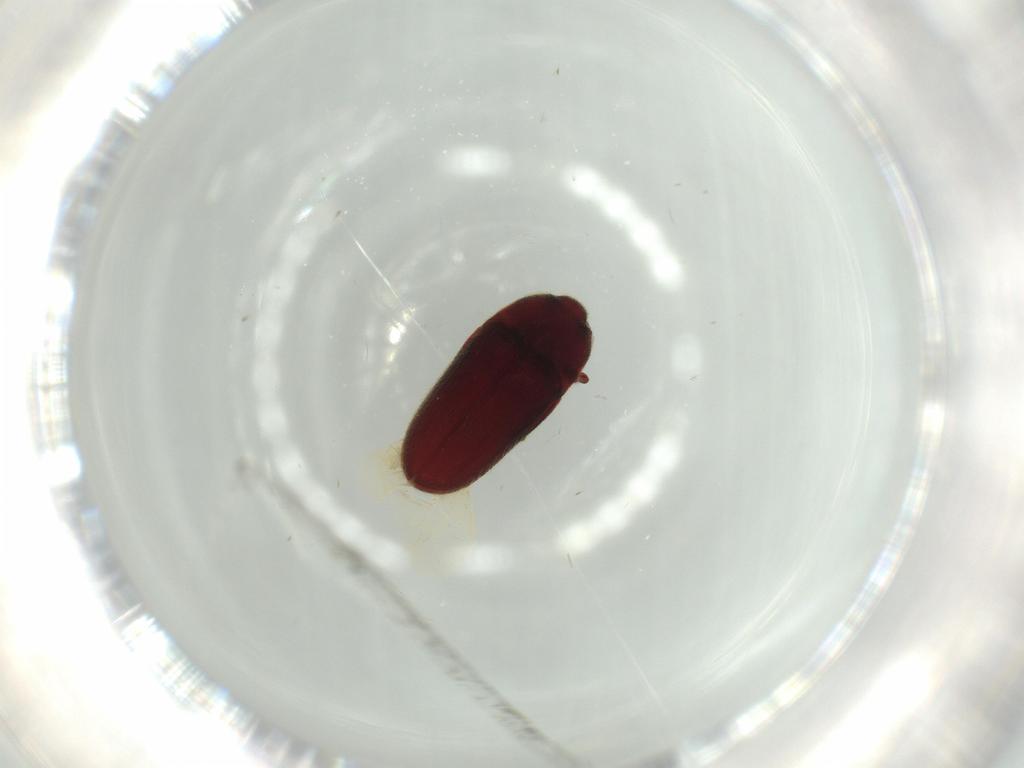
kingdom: Animalia
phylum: Arthropoda
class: Insecta
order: Coleoptera
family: Throscidae
